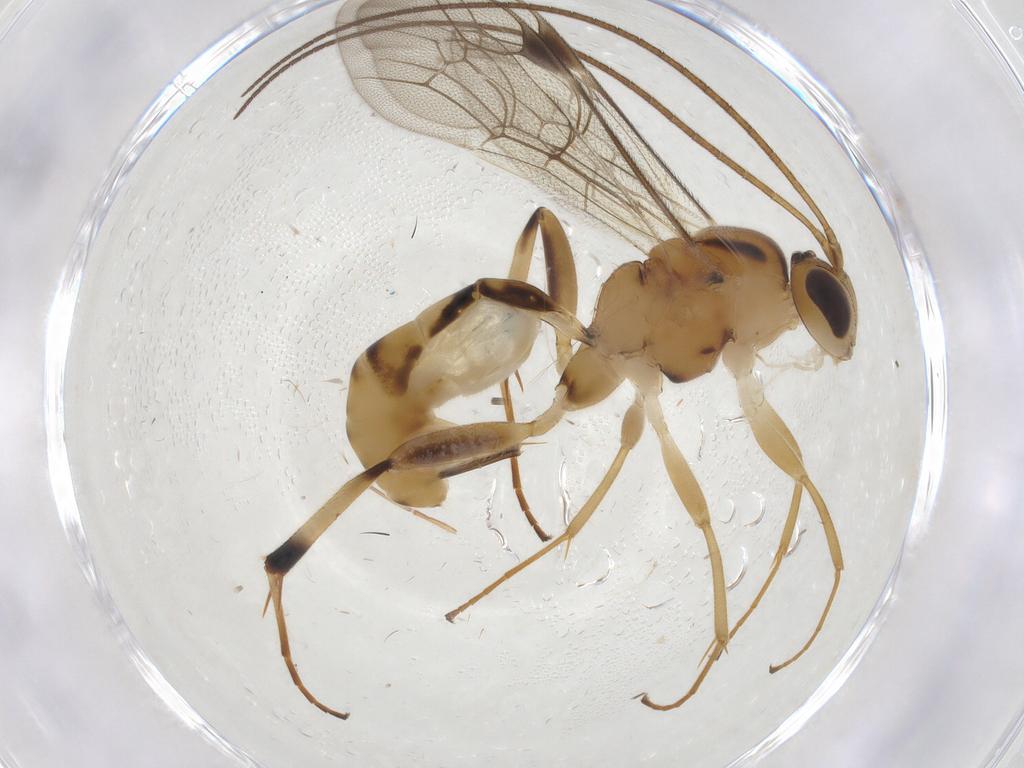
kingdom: Animalia
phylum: Arthropoda
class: Insecta
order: Hymenoptera
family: Ichneumonidae
